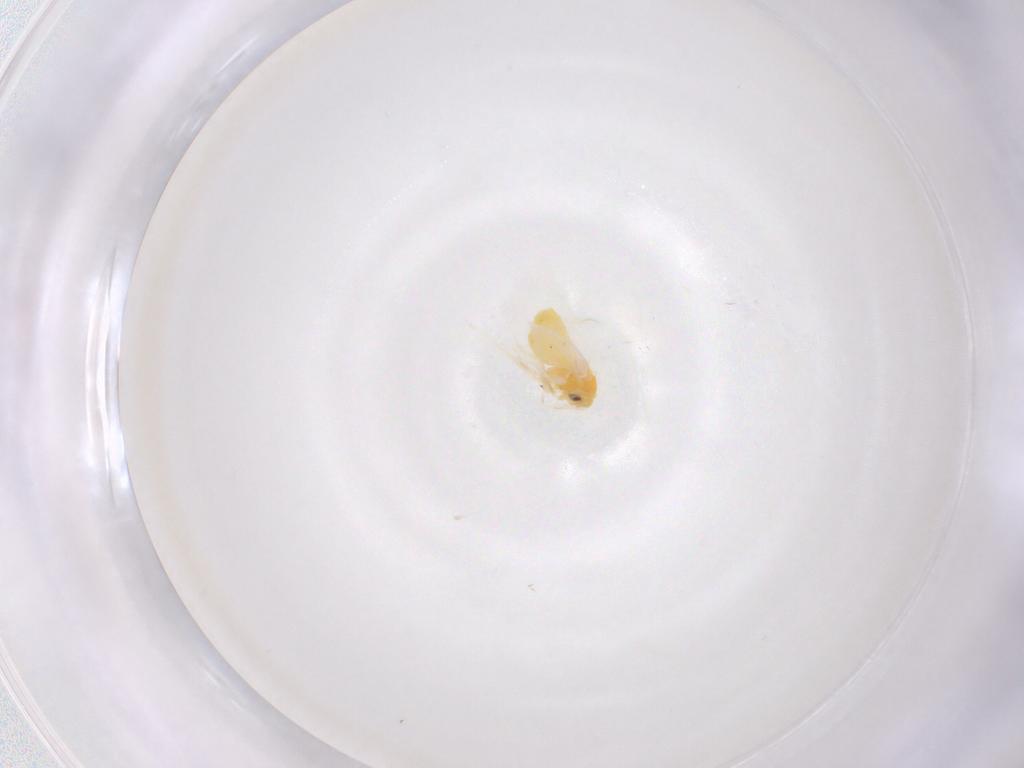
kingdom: Animalia
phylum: Arthropoda
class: Insecta
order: Hemiptera
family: Aleyrodidae
